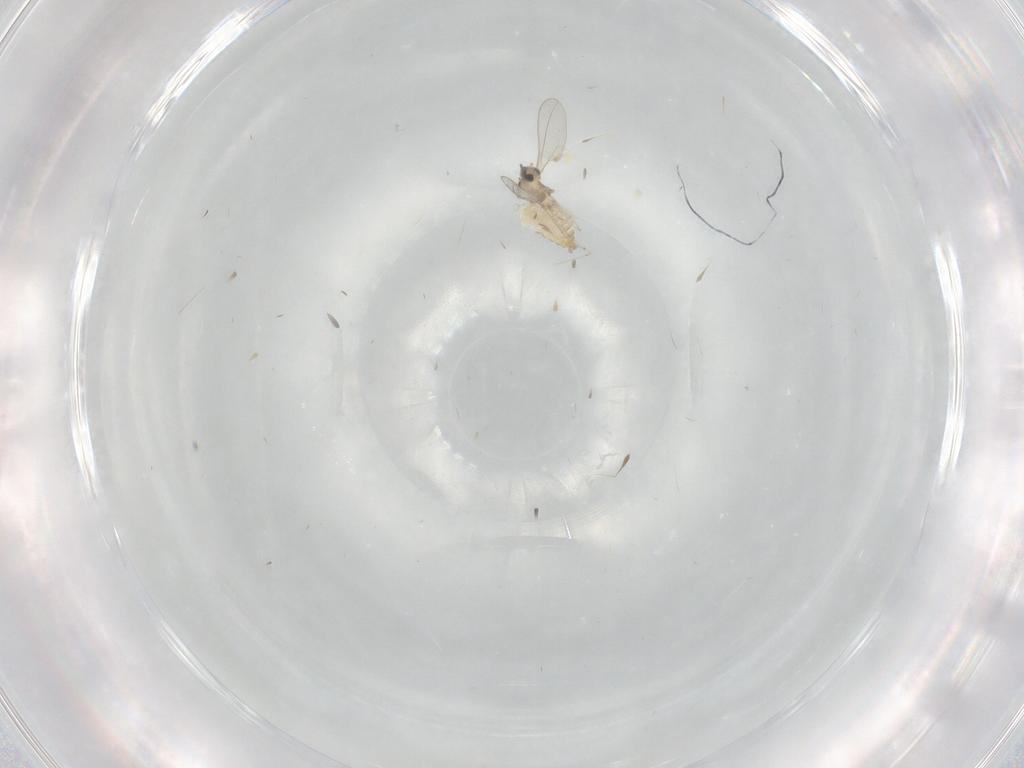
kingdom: Animalia
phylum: Arthropoda
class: Insecta
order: Diptera
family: Cecidomyiidae
